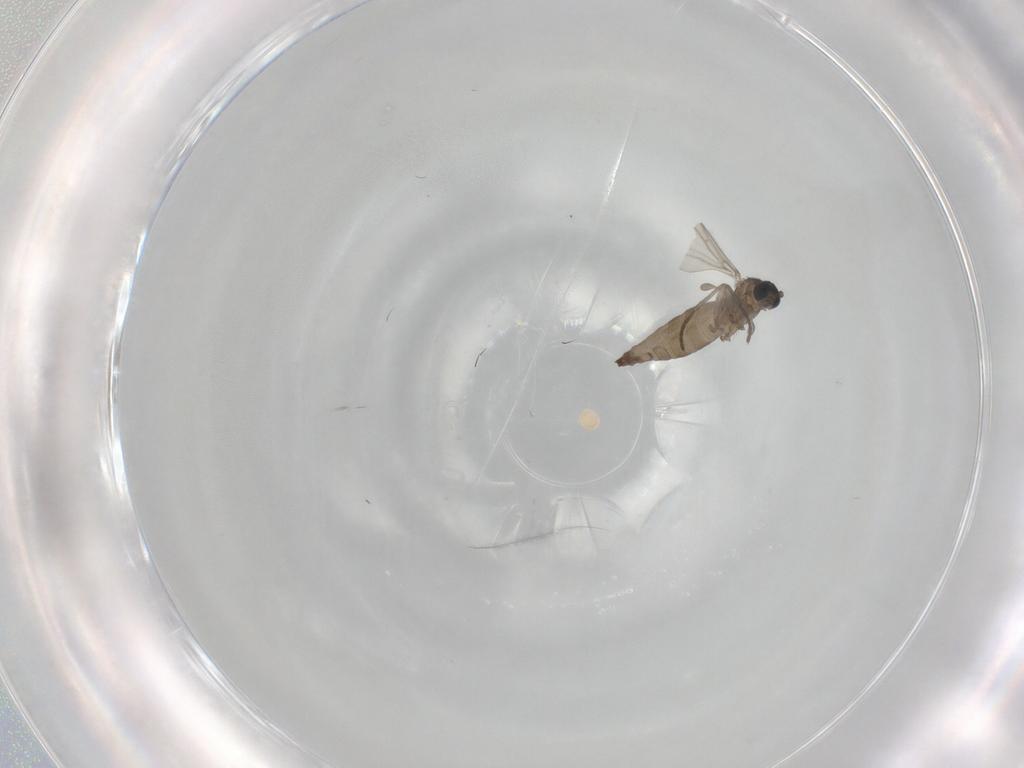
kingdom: Animalia
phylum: Arthropoda
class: Insecta
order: Diptera
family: Sciaridae
